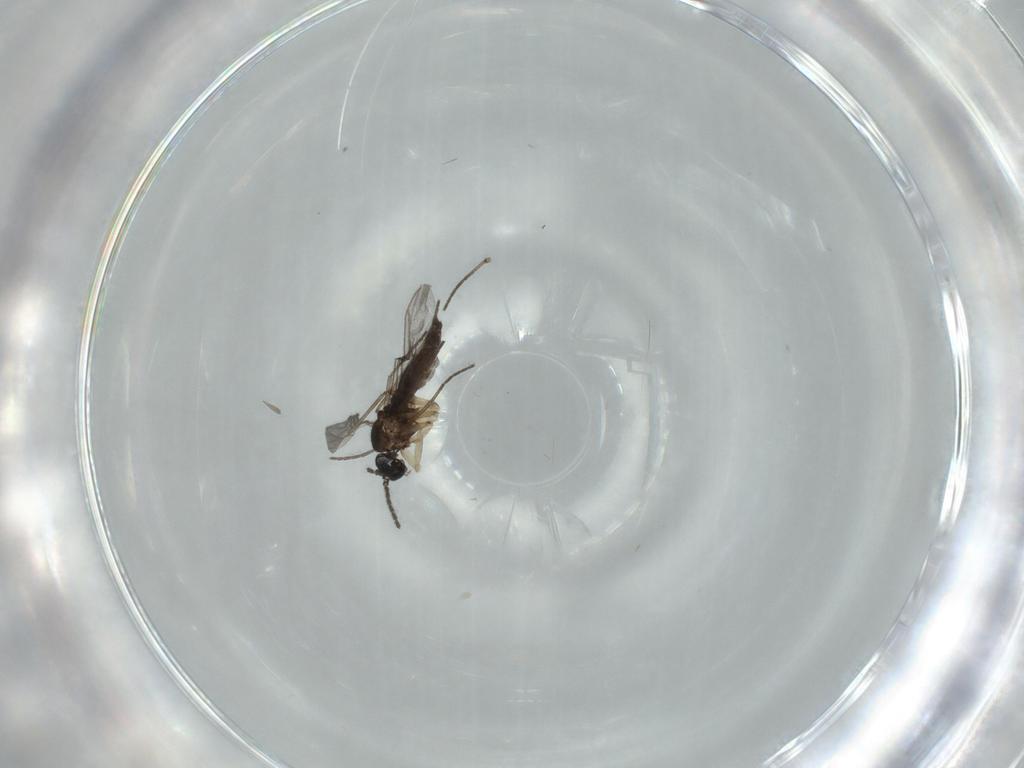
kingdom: Animalia
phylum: Arthropoda
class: Insecta
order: Diptera
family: Sciaridae
